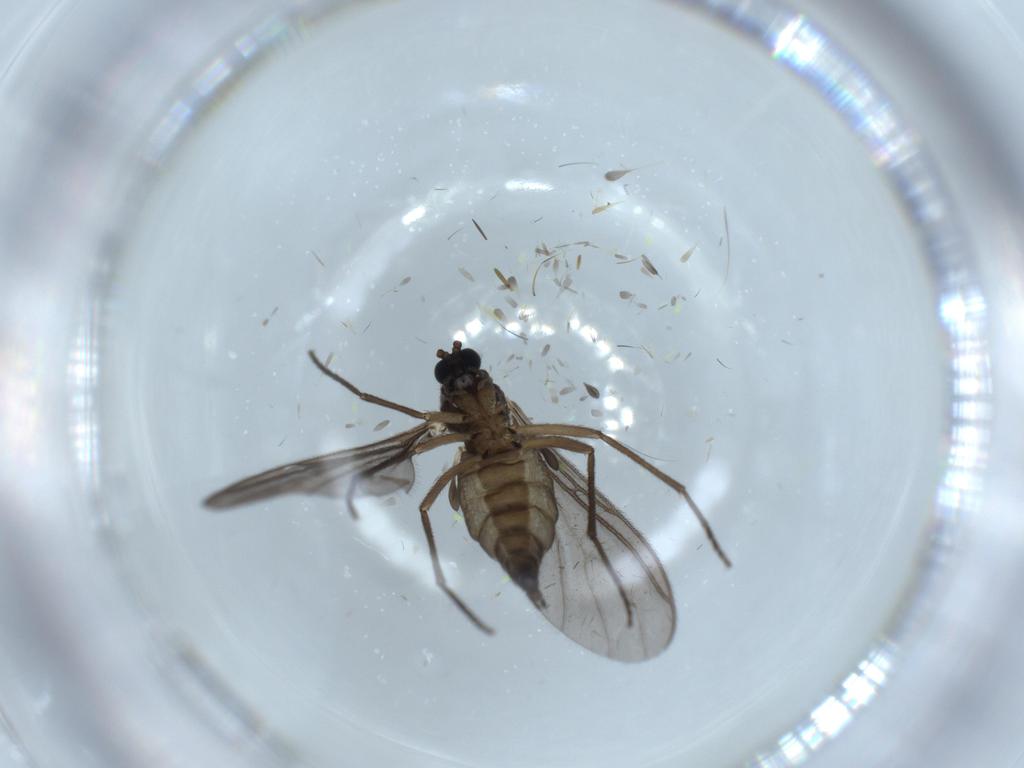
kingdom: Animalia
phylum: Arthropoda
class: Insecta
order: Diptera
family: Sciaridae
